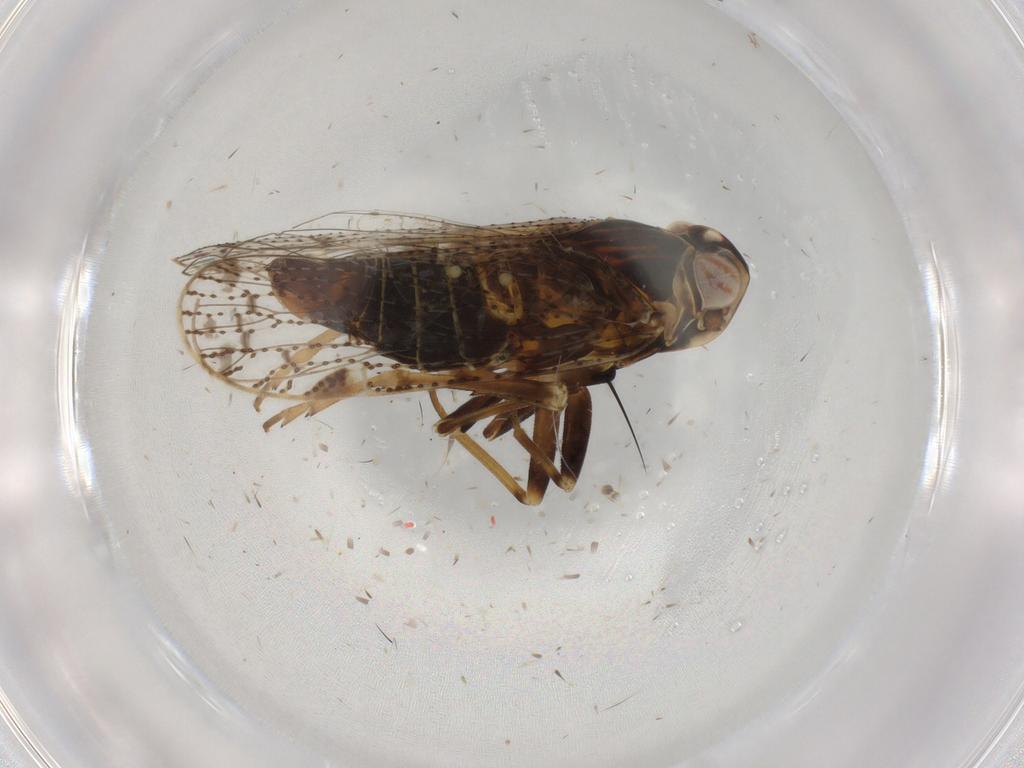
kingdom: Animalia
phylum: Arthropoda
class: Insecta
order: Hemiptera
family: Cixiidae
